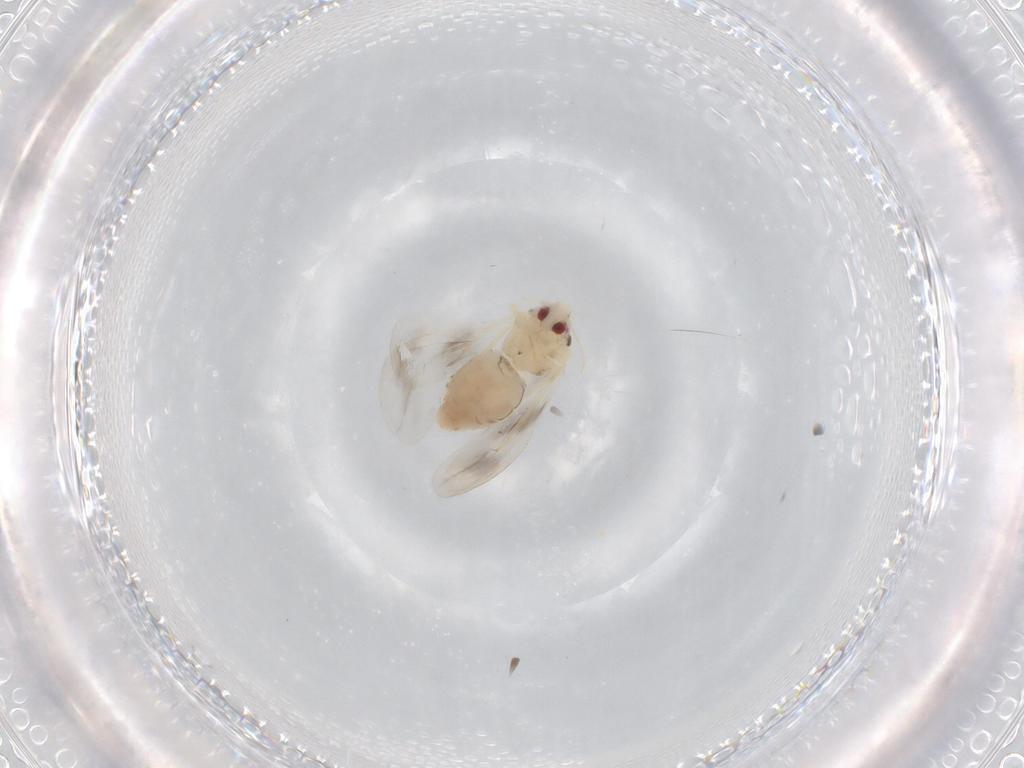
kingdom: Animalia
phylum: Arthropoda
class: Insecta
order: Hemiptera
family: Aleyrodidae
